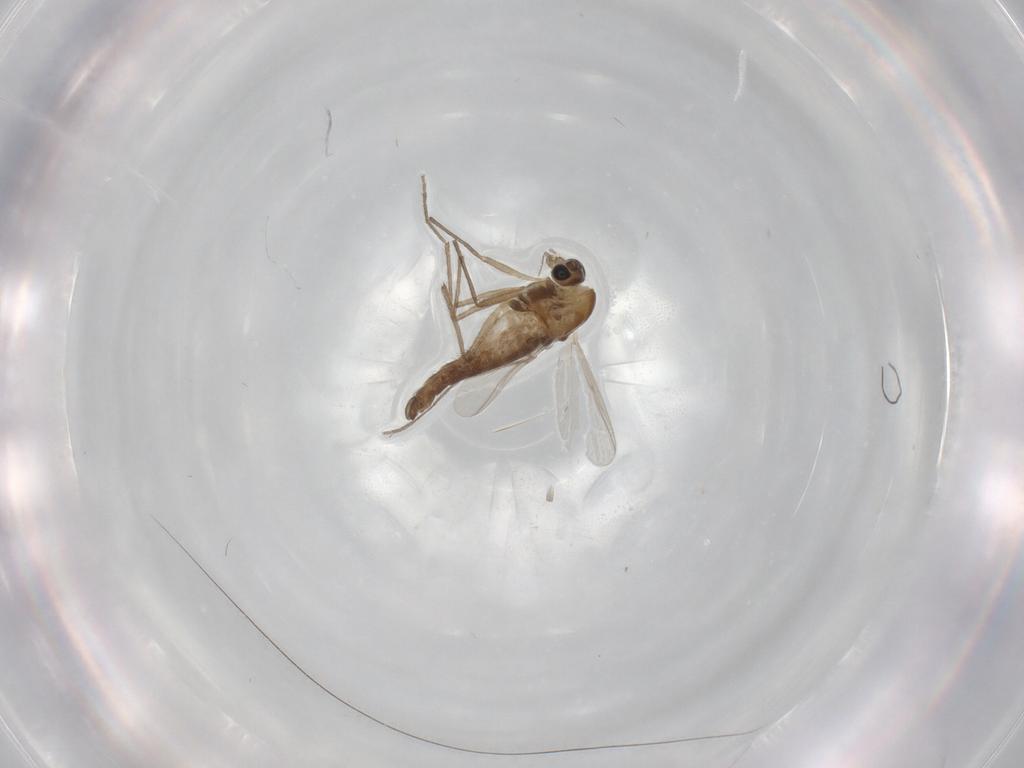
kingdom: Animalia
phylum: Arthropoda
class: Insecta
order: Diptera
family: Chironomidae
